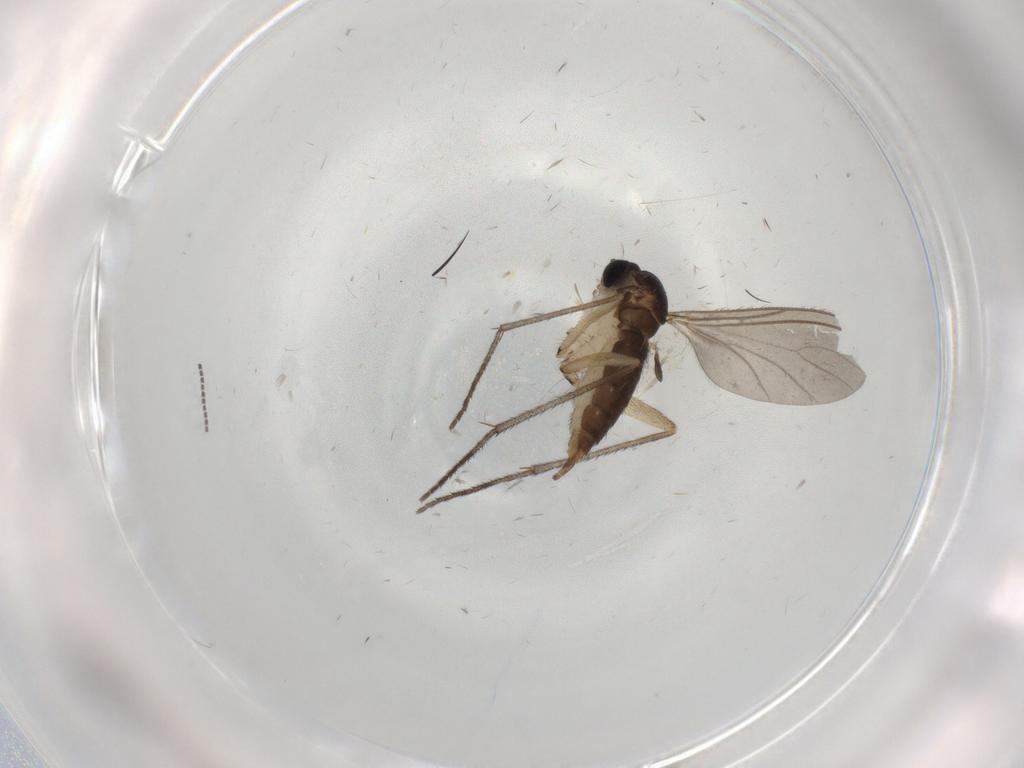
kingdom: Animalia
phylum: Arthropoda
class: Insecta
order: Diptera
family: Sciaridae
